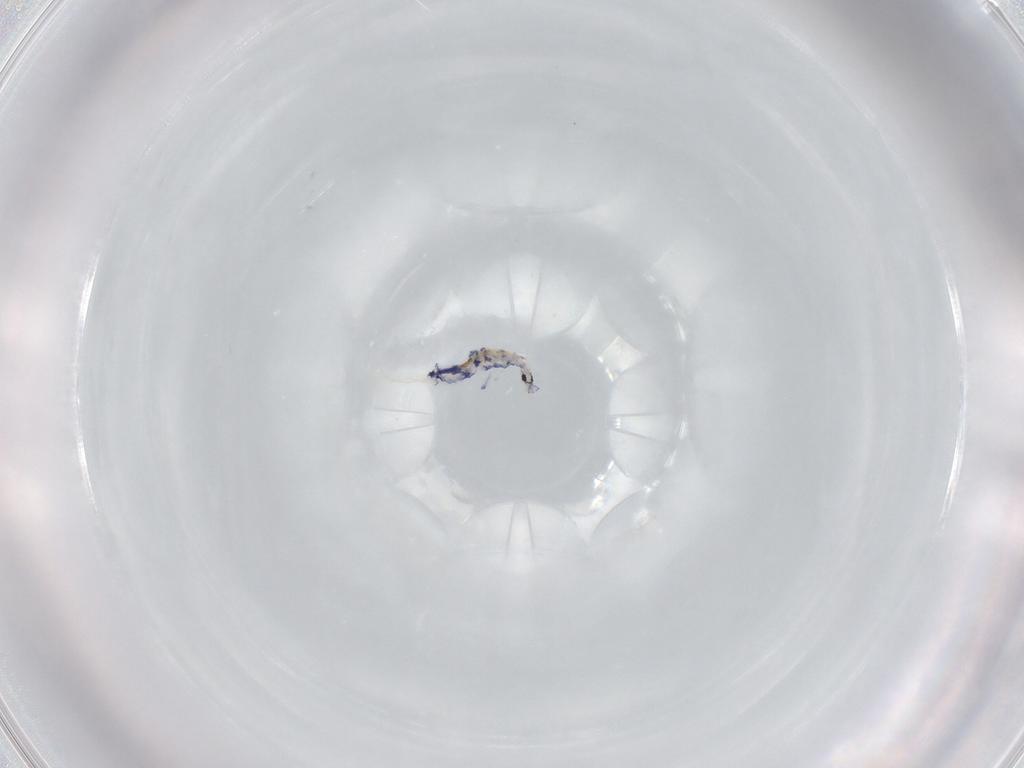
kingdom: Animalia
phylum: Arthropoda
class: Collembola
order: Entomobryomorpha
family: Entomobryidae
